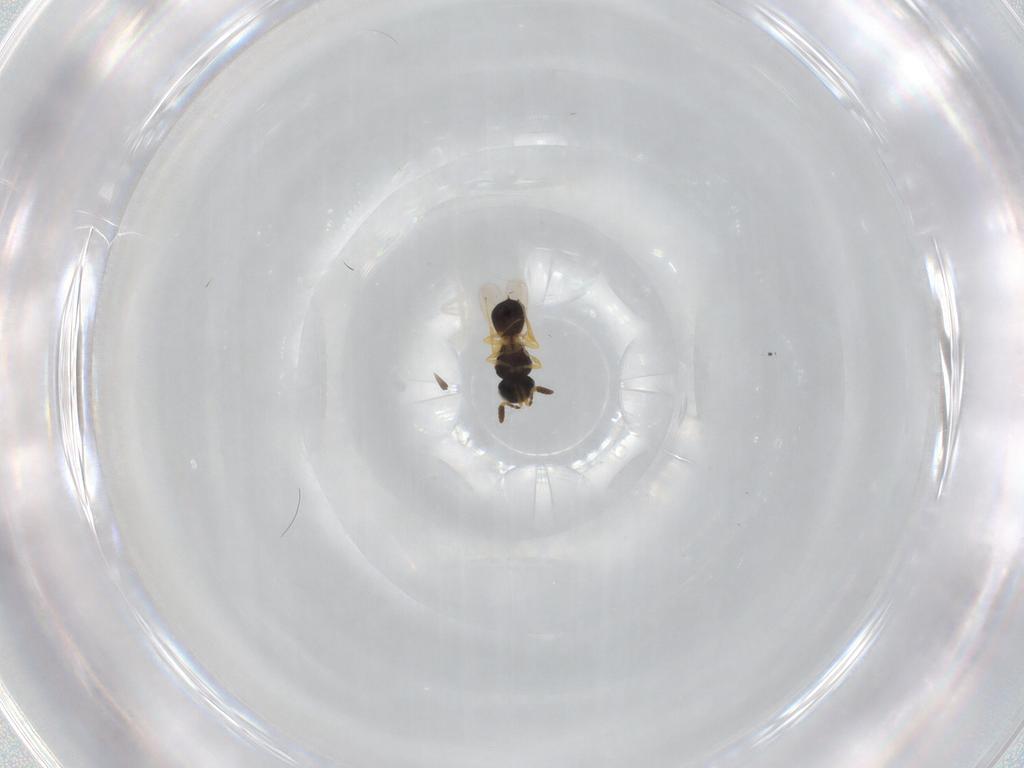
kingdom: Animalia
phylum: Arthropoda
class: Insecta
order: Hymenoptera
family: Scelionidae
